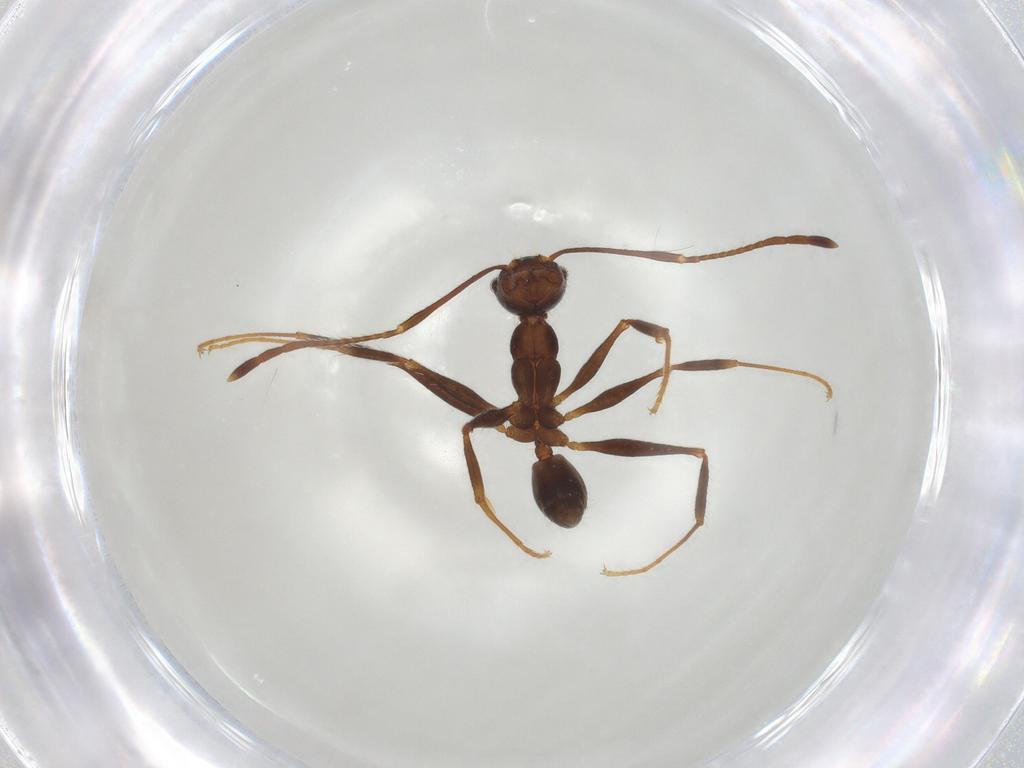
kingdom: Animalia
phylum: Arthropoda
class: Insecta
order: Hymenoptera
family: Formicidae
